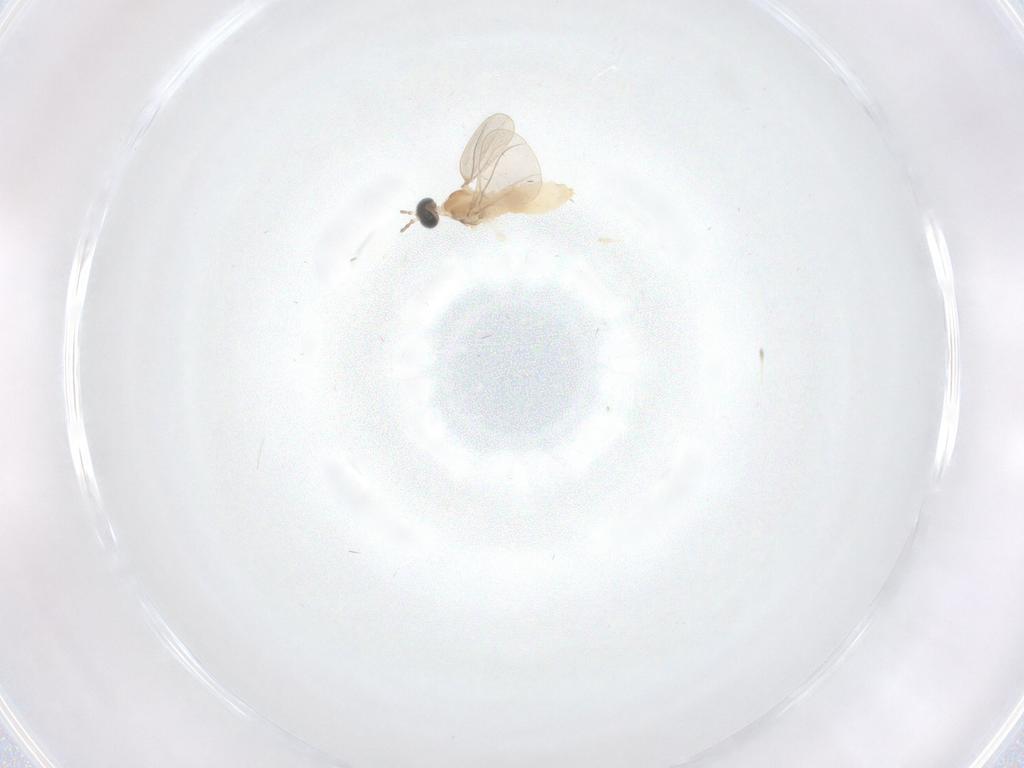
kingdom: Animalia
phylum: Arthropoda
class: Insecta
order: Diptera
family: Cecidomyiidae
